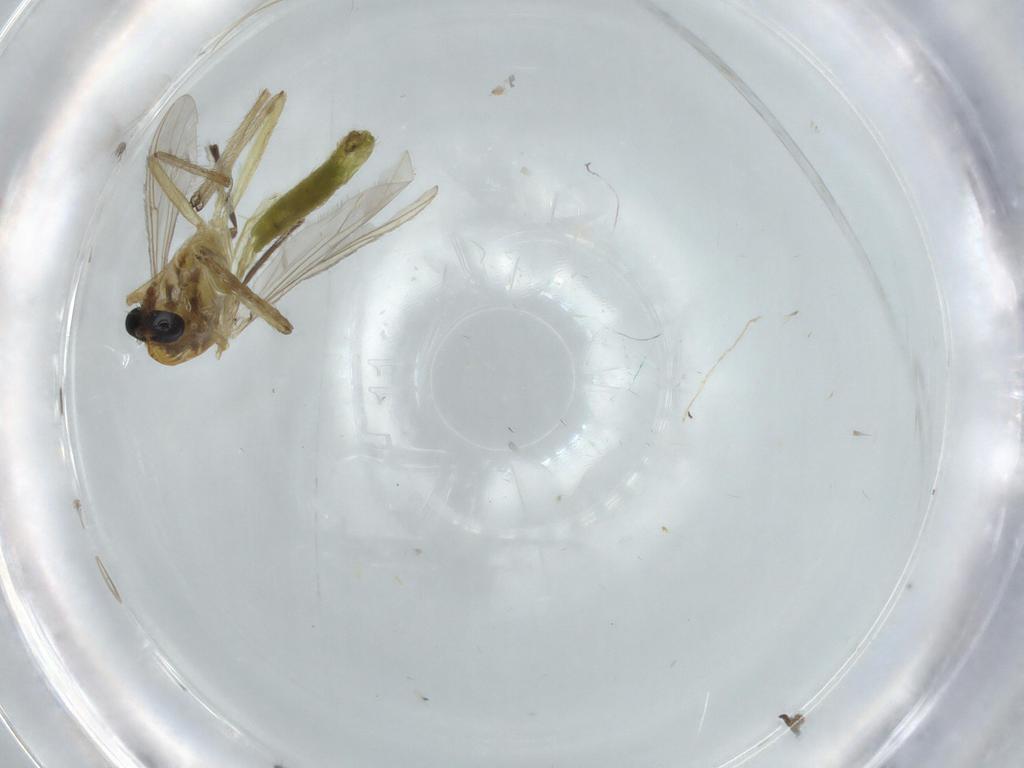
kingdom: Animalia
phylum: Arthropoda
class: Insecta
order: Diptera
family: Chironomidae
